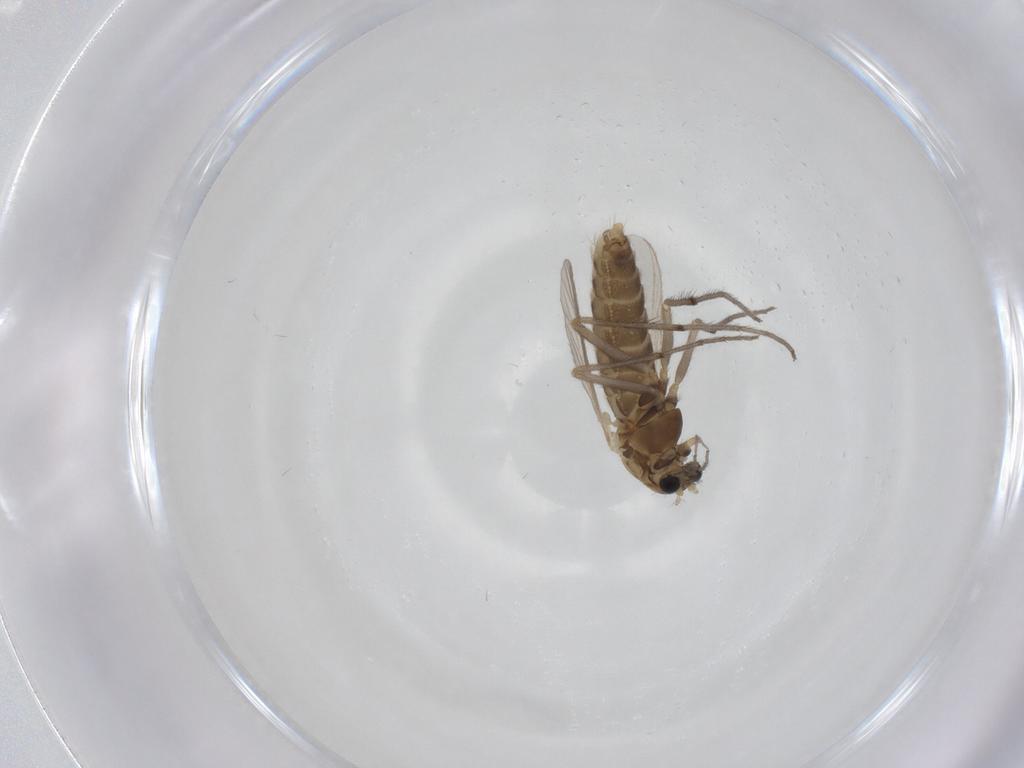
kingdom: Animalia
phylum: Arthropoda
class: Insecta
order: Diptera
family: Chironomidae
